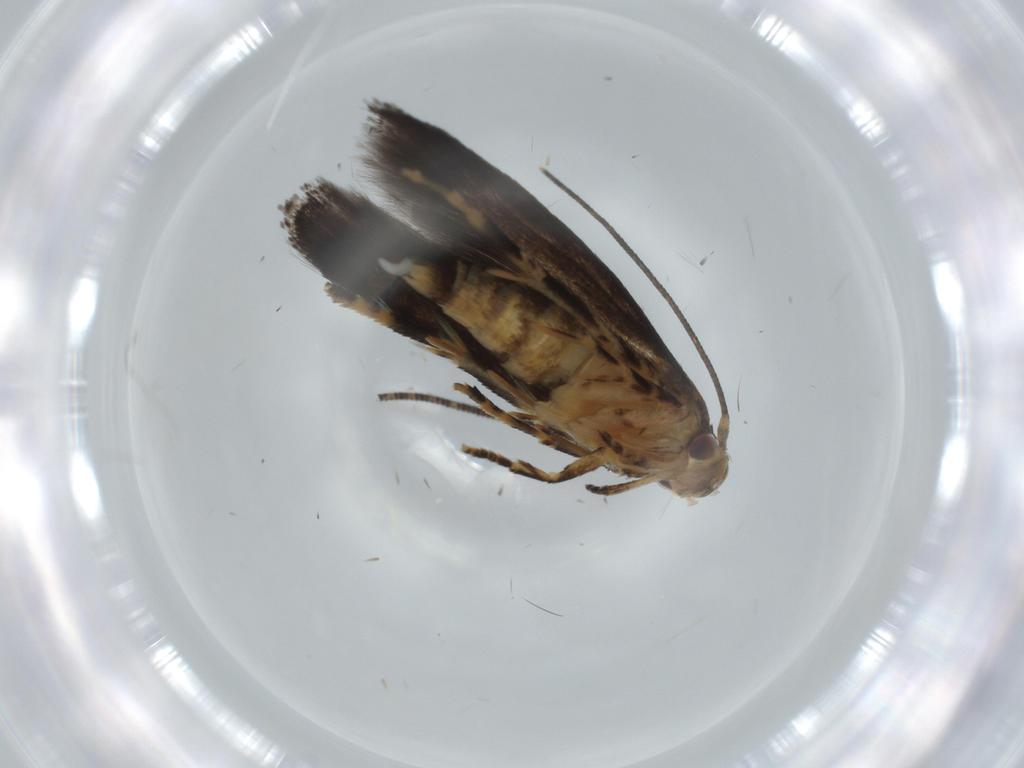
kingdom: Animalia
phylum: Arthropoda
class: Insecta
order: Lepidoptera
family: Momphidae
